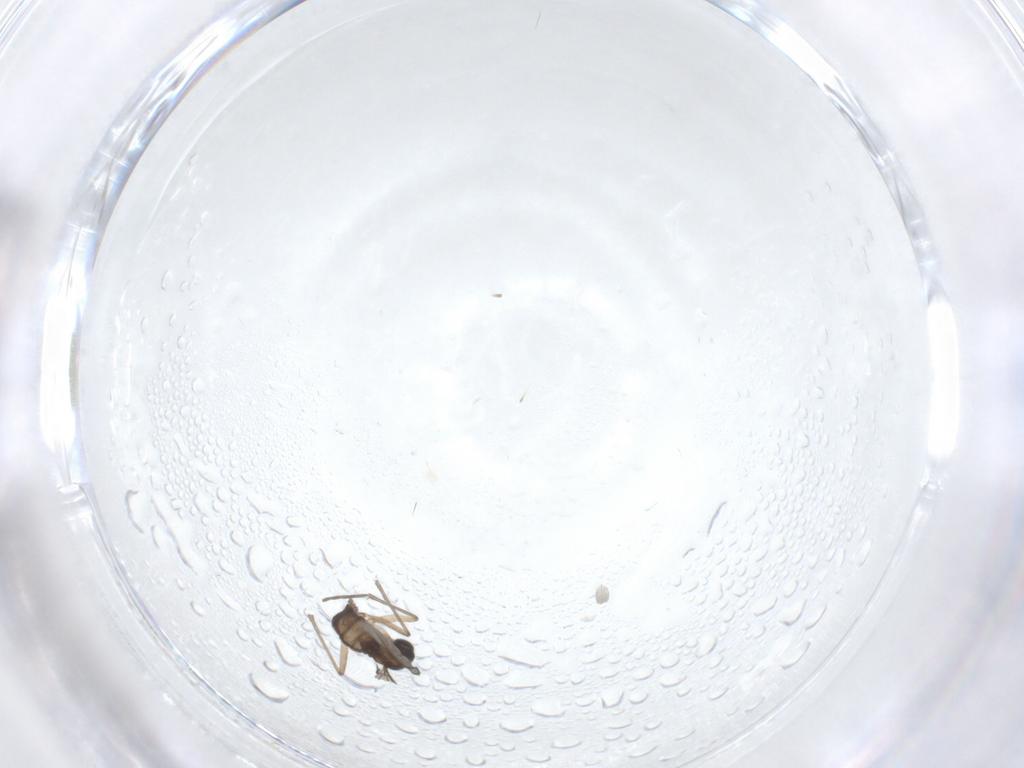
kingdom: Animalia
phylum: Arthropoda
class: Insecta
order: Diptera
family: Sciaridae
